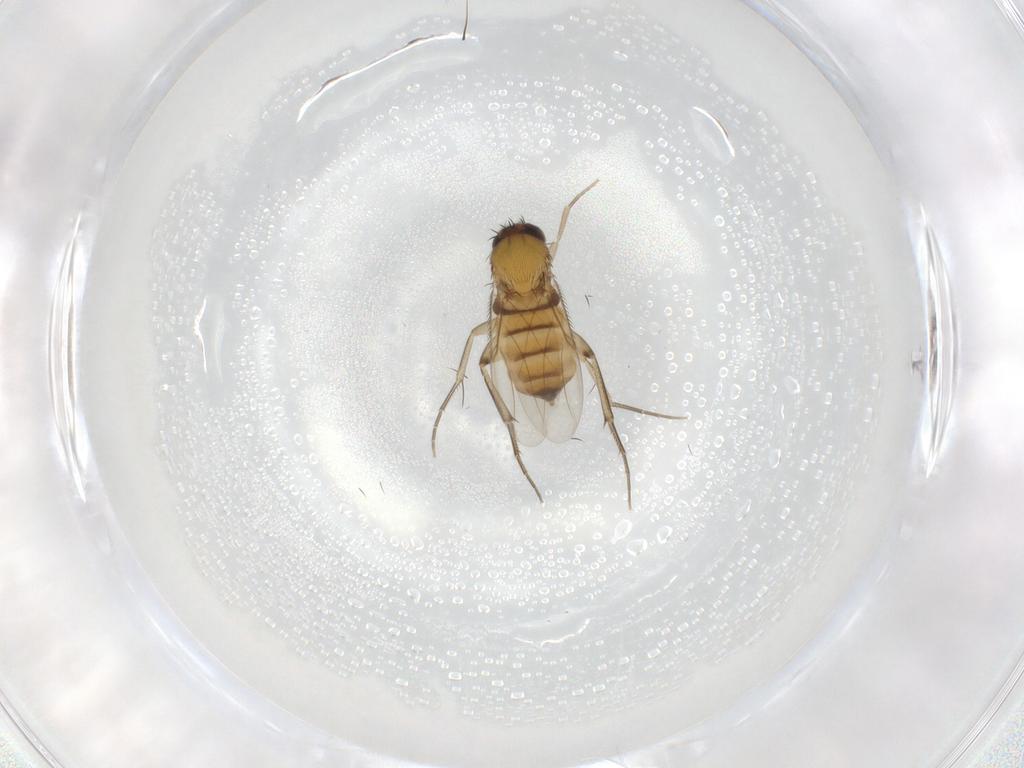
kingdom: Animalia
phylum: Arthropoda
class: Insecta
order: Diptera
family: Phoridae
